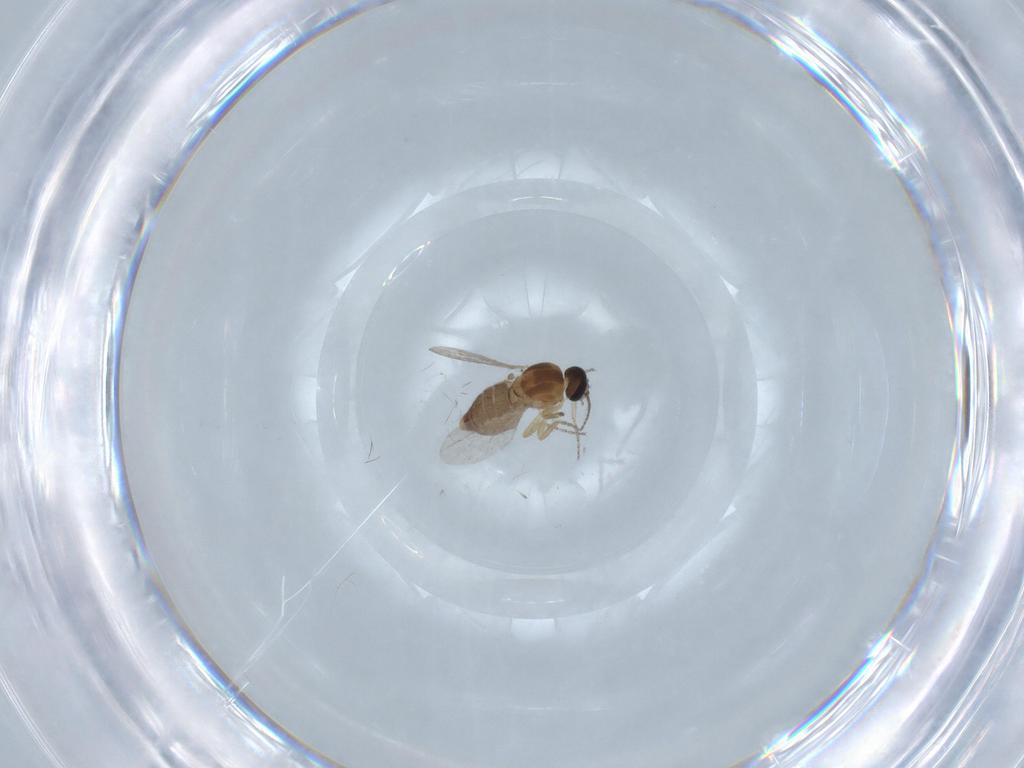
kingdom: Animalia
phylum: Arthropoda
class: Insecta
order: Diptera
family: Ceratopogonidae
